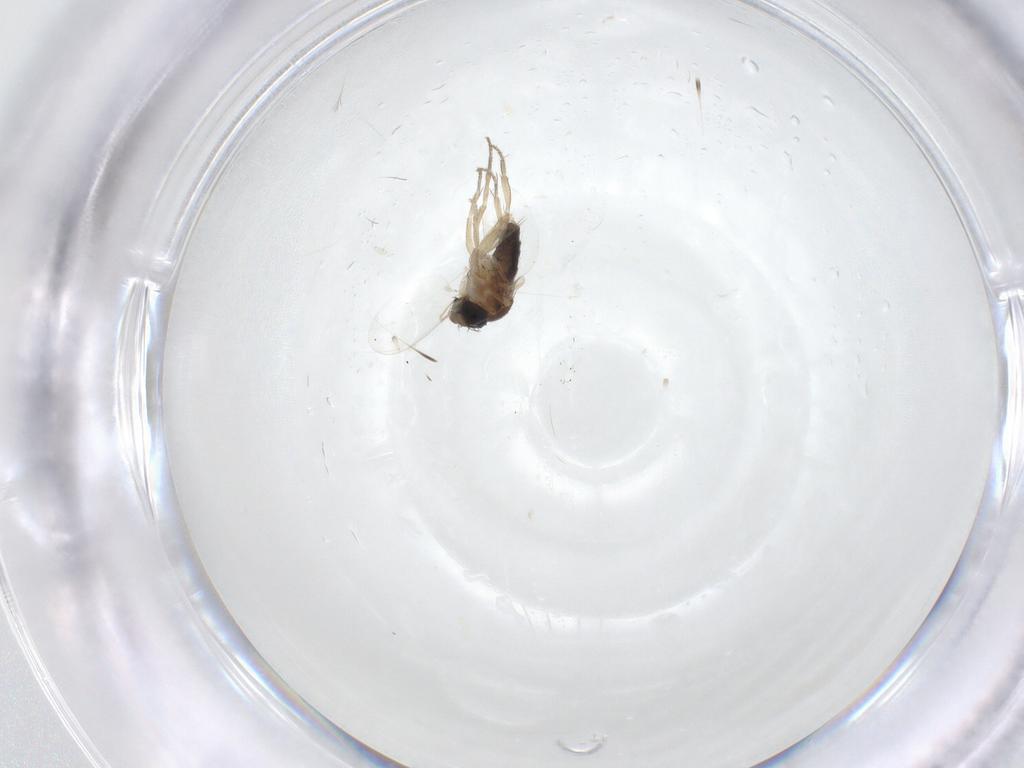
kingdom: Animalia
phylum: Arthropoda
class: Insecta
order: Diptera
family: Phoridae
